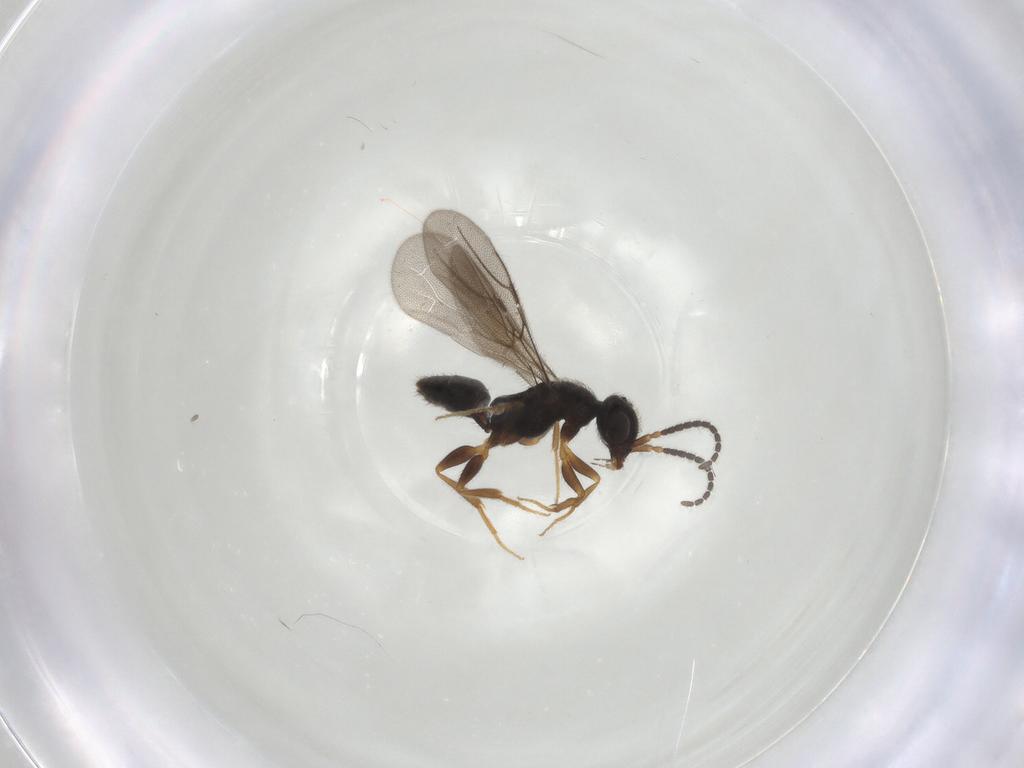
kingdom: Animalia
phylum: Arthropoda
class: Insecta
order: Hymenoptera
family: Bethylidae
